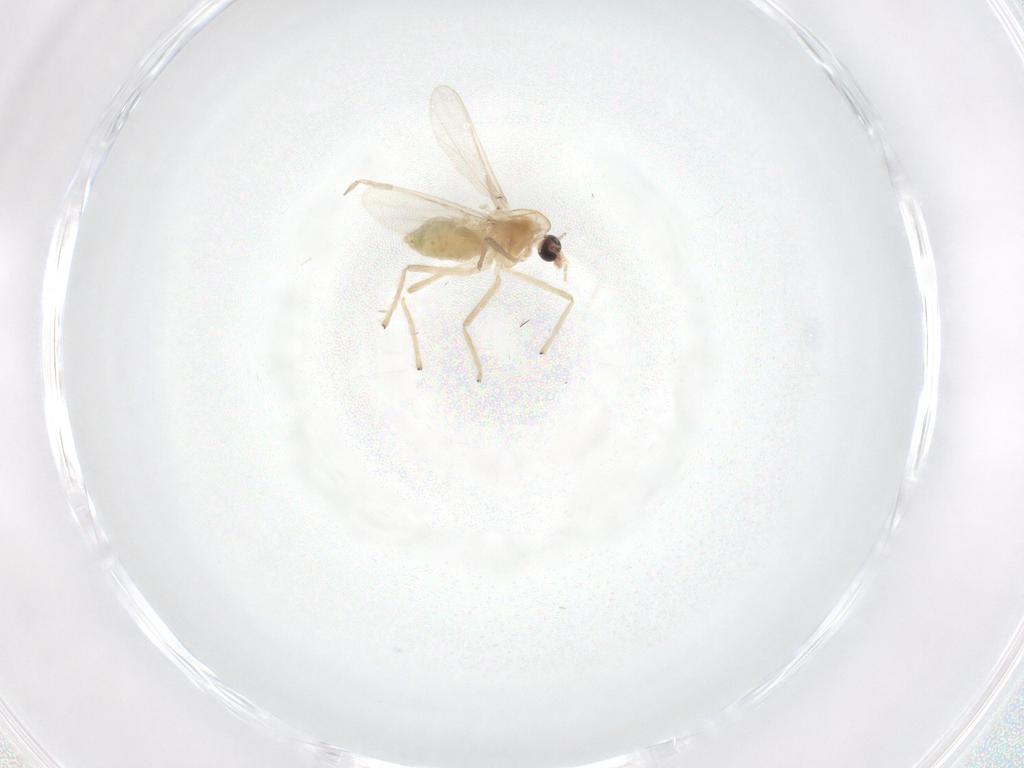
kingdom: Animalia
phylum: Arthropoda
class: Insecta
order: Diptera
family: Chironomidae
